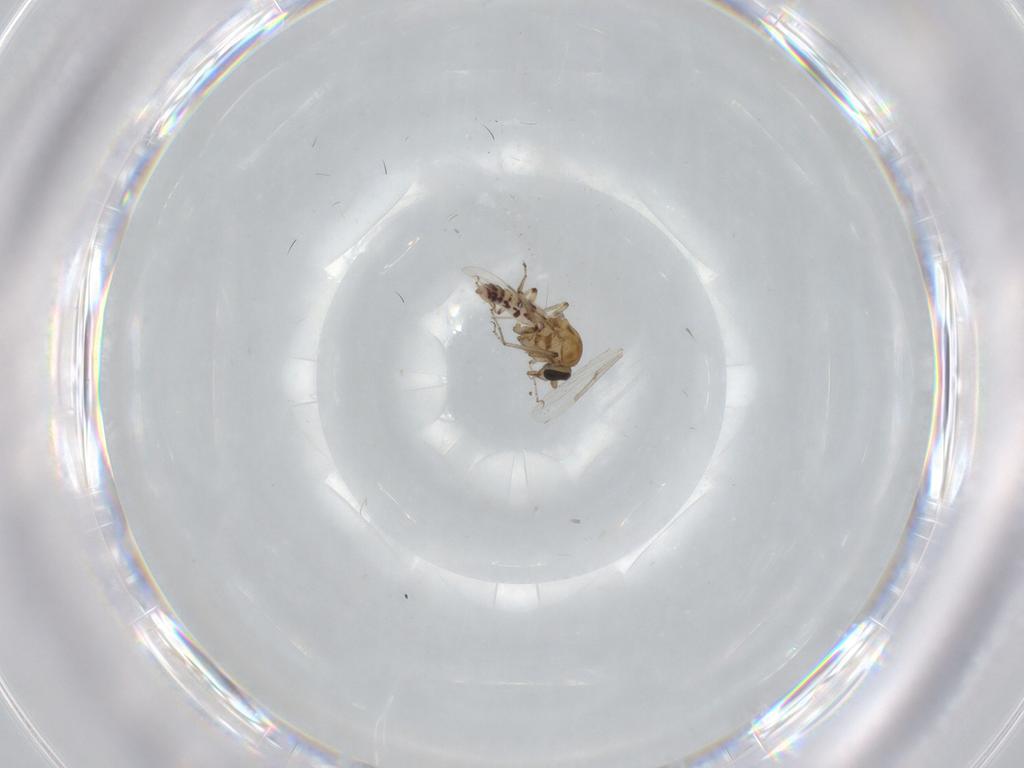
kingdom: Animalia
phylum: Arthropoda
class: Insecta
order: Diptera
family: Ceratopogonidae
